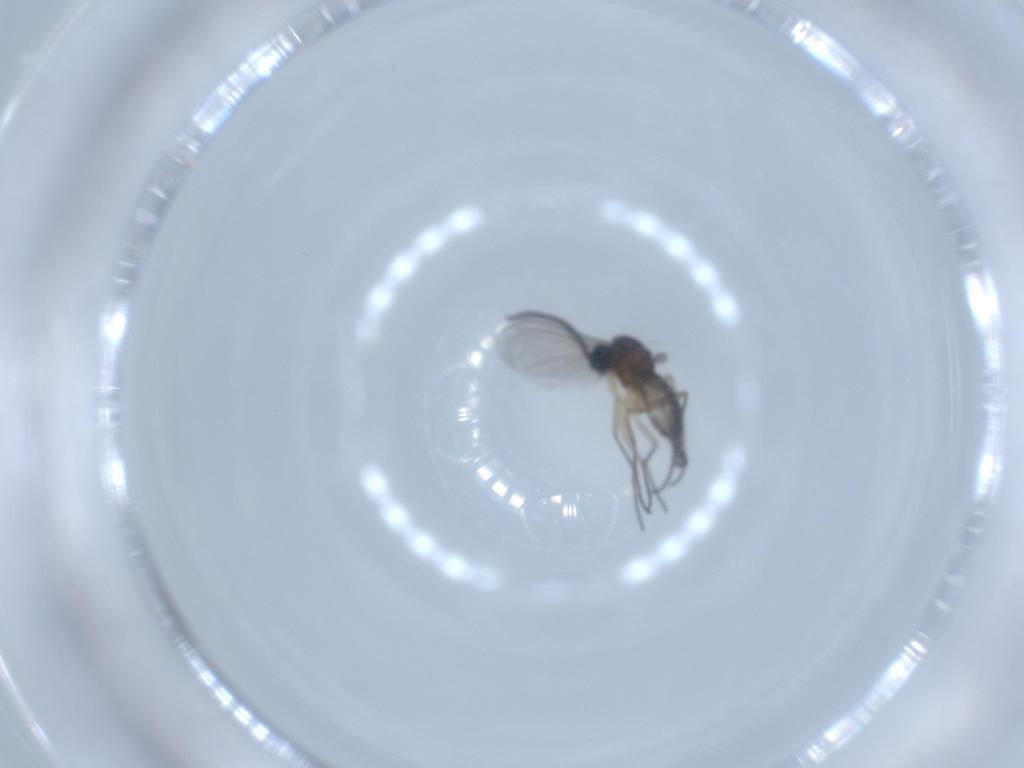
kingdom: Animalia
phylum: Arthropoda
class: Insecta
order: Diptera
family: Sciaridae
